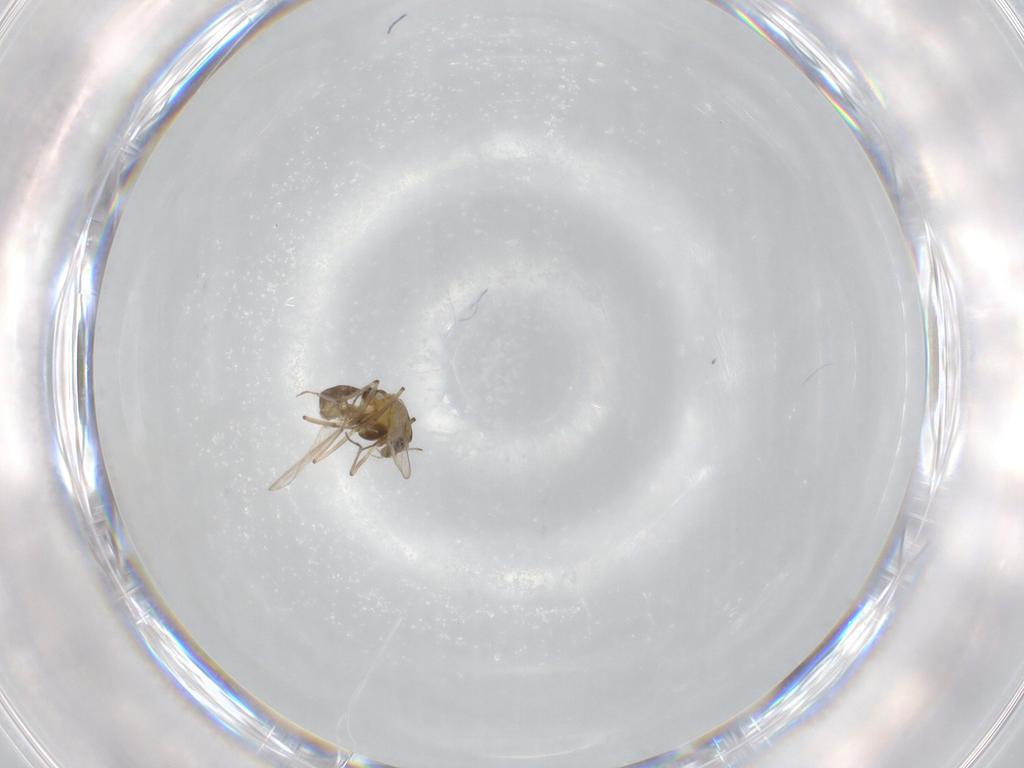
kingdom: Animalia
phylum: Arthropoda
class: Insecta
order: Diptera
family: Chironomidae
